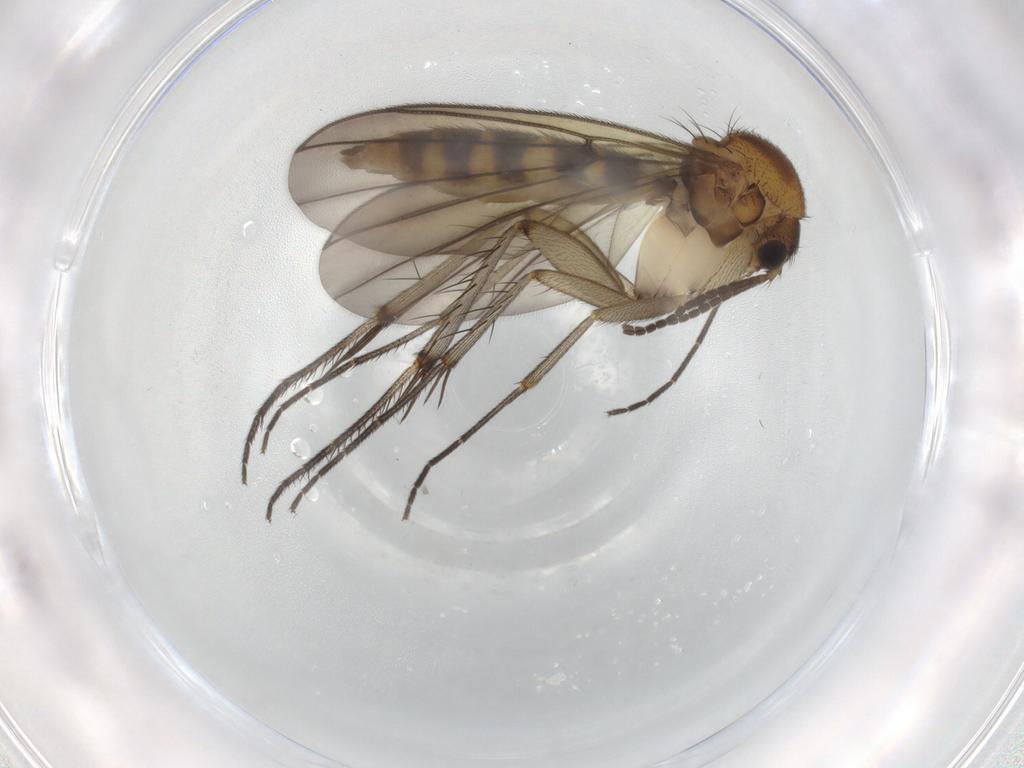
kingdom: Animalia
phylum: Arthropoda
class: Insecta
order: Diptera
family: Mycetophilidae
